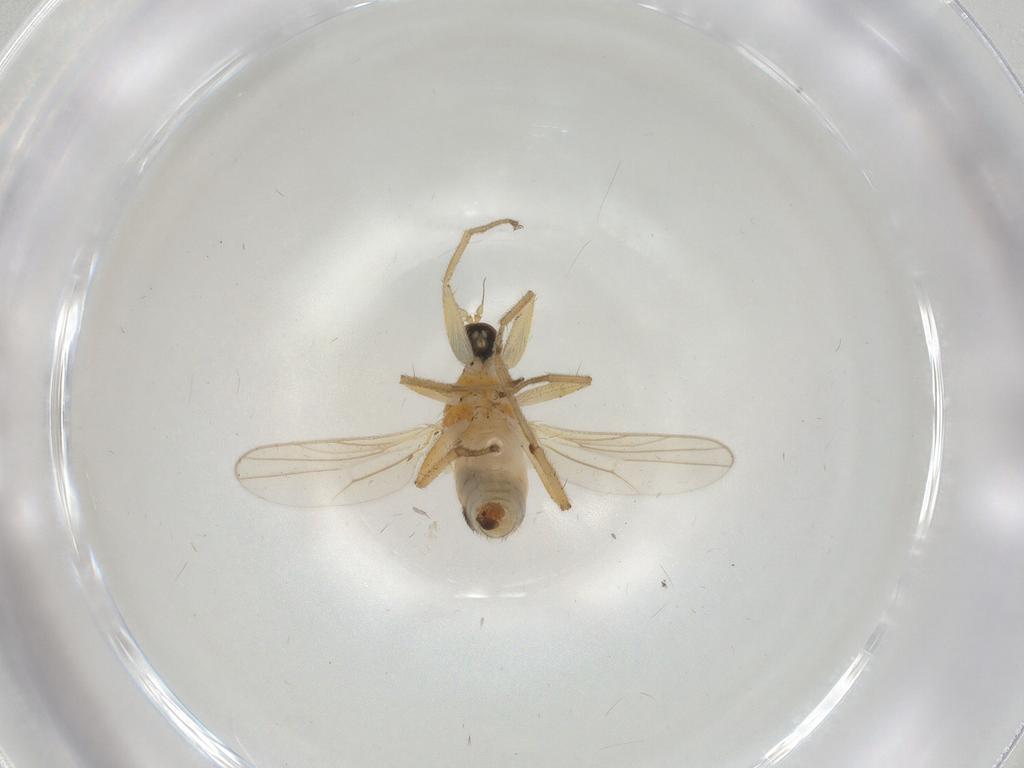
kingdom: Animalia
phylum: Arthropoda
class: Insecta
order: Diptera
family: Hybotidae
